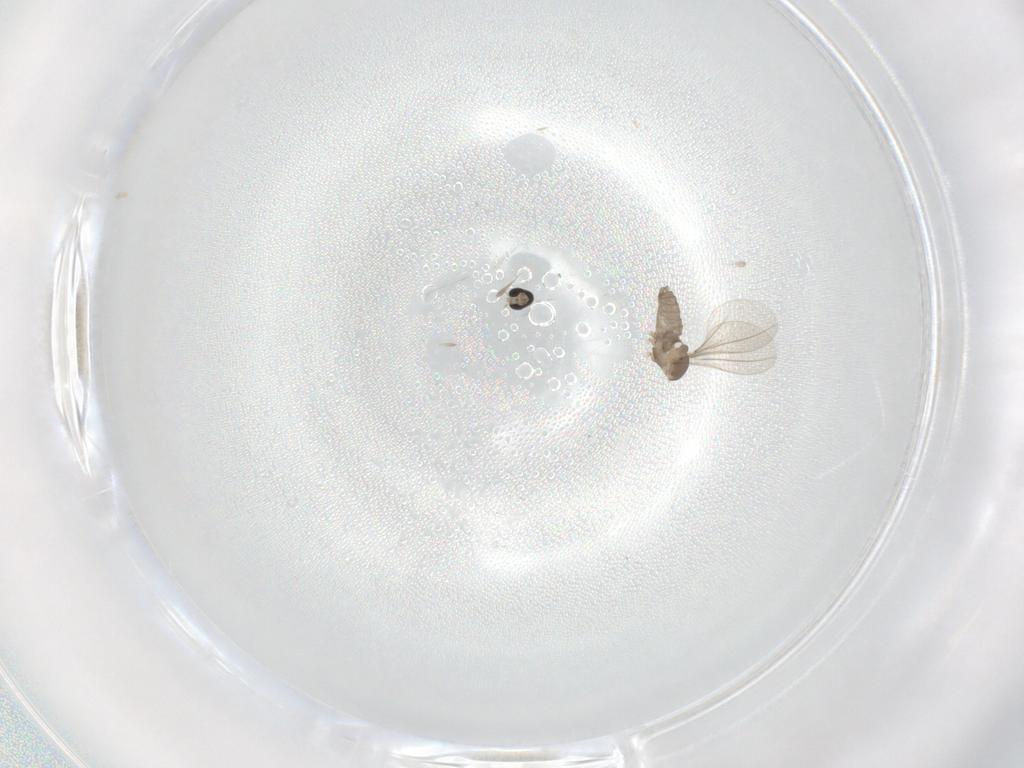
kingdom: Animalia
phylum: Arthropoda
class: Insecta
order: Diptera
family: Cecidomyiidae
